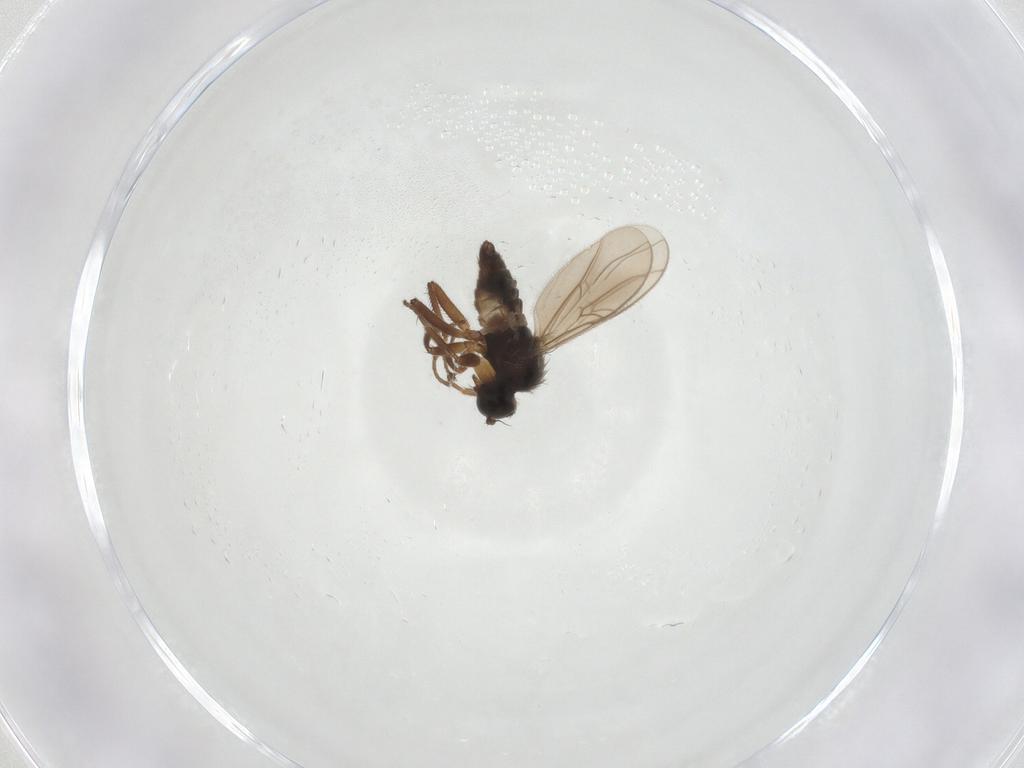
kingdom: Animalia
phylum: Arthropoda
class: Insecta
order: Diptera
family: Hybotidae
